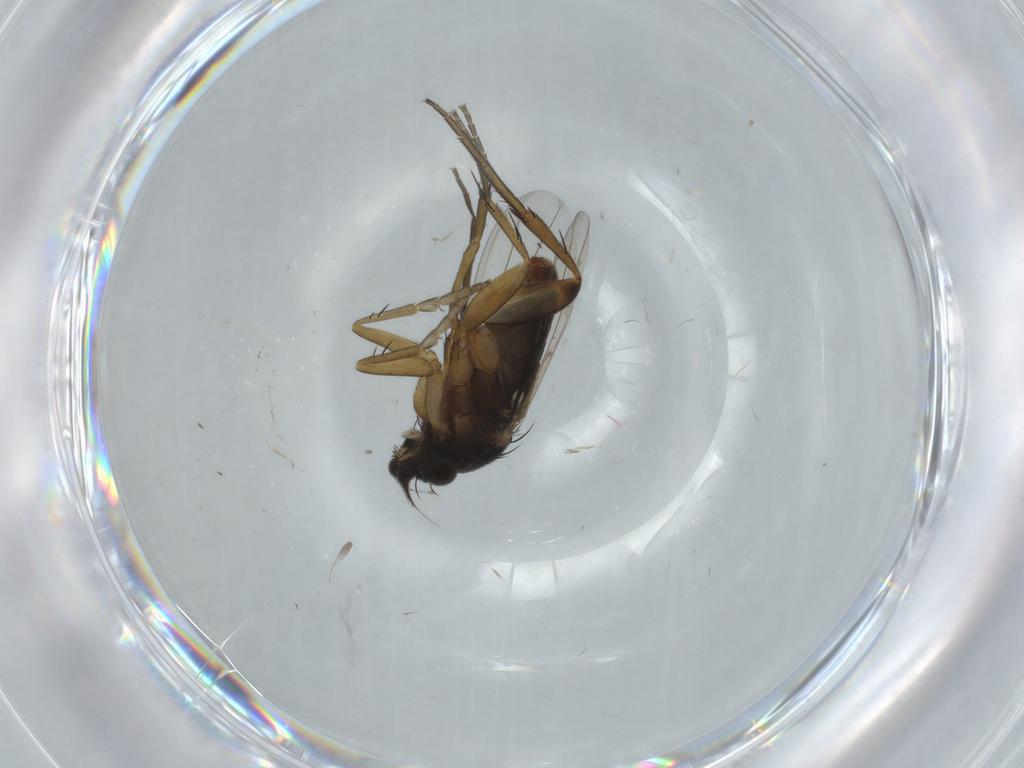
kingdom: Animalia
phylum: Arthropoda
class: Insecta
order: Diptera
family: Phoridae
